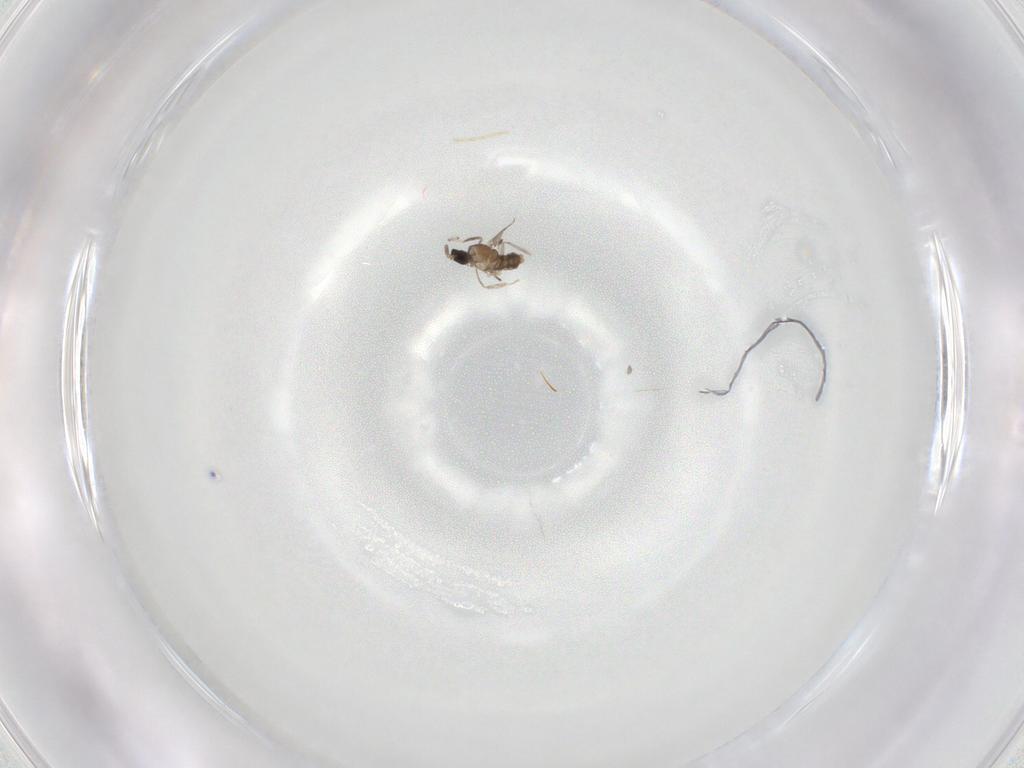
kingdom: Animalia
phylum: Arthropoda
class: Insecta
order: Diptera
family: Cecidomyiidae
